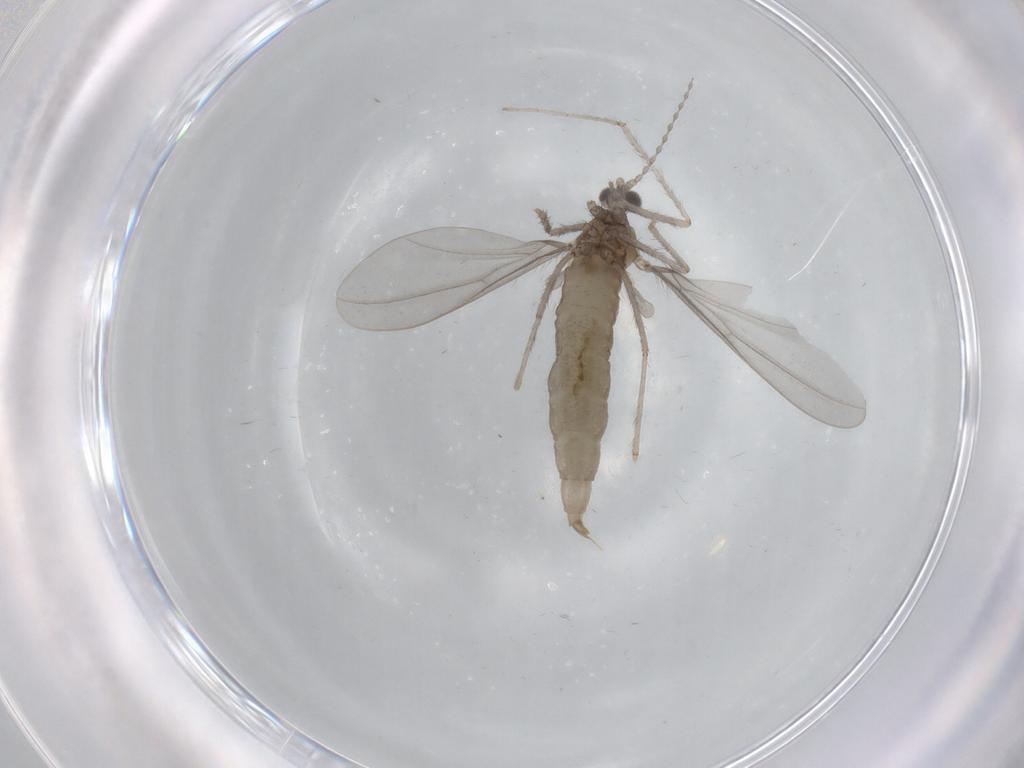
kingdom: Animalia
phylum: Arthropoda
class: Insecta
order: Diptera
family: Cecidomyiidae
